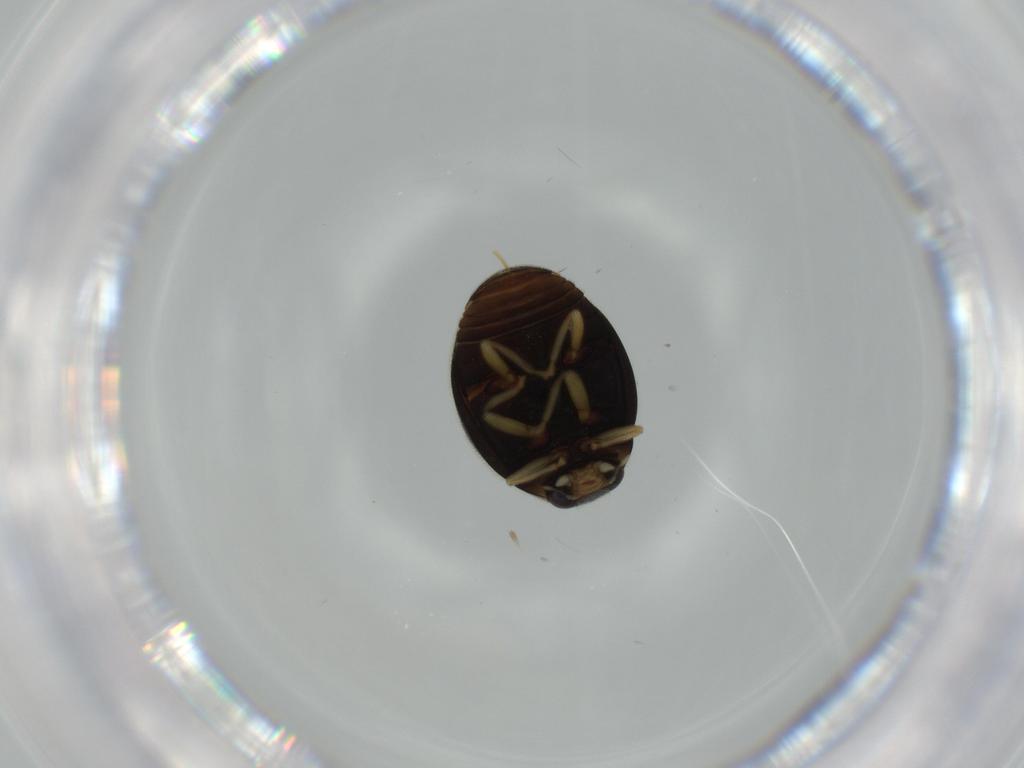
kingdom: Animalia
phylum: Arthropoda
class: Insecta
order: Coleoptera
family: Coccinellidae
